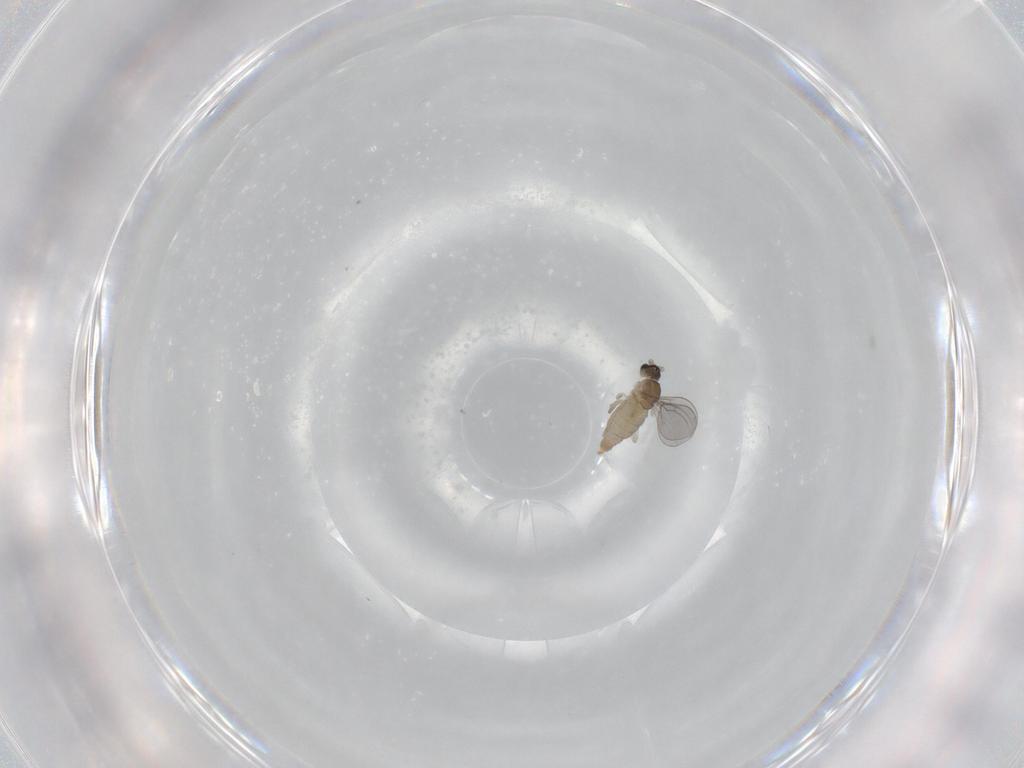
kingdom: Animalia
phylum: Arthropoda
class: Insecta
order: Diptera
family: Cecidomyiidae
